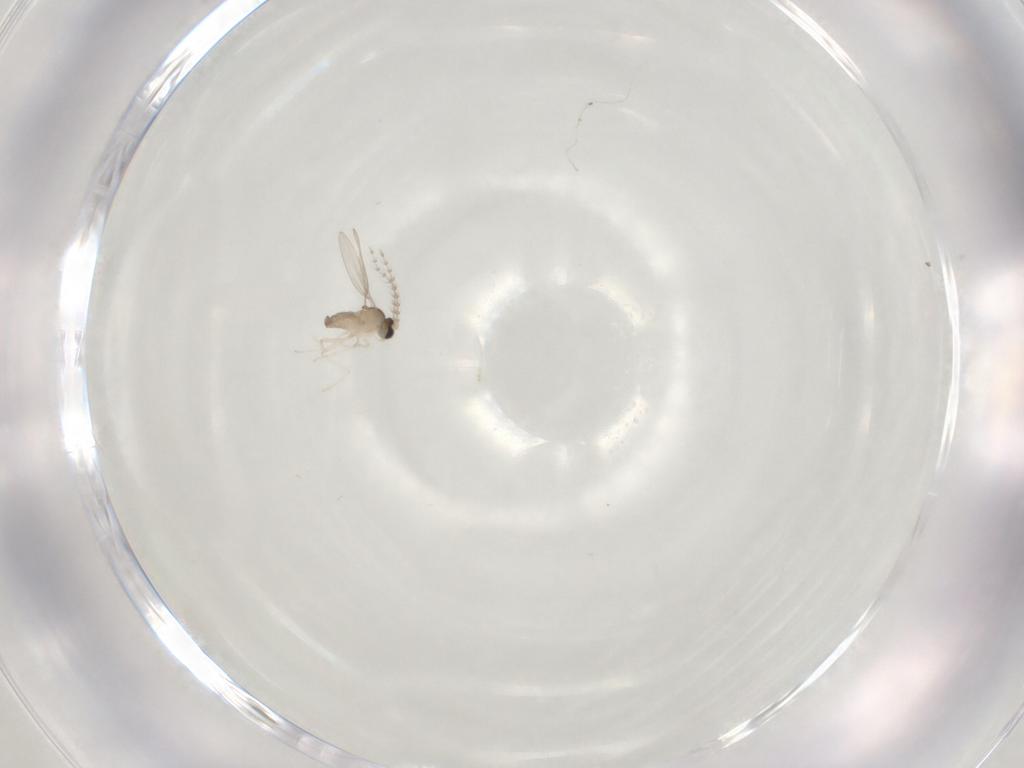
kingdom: Animalia
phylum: Arthropoda
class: Insecta
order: Diptera
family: Cecidomyiidae
